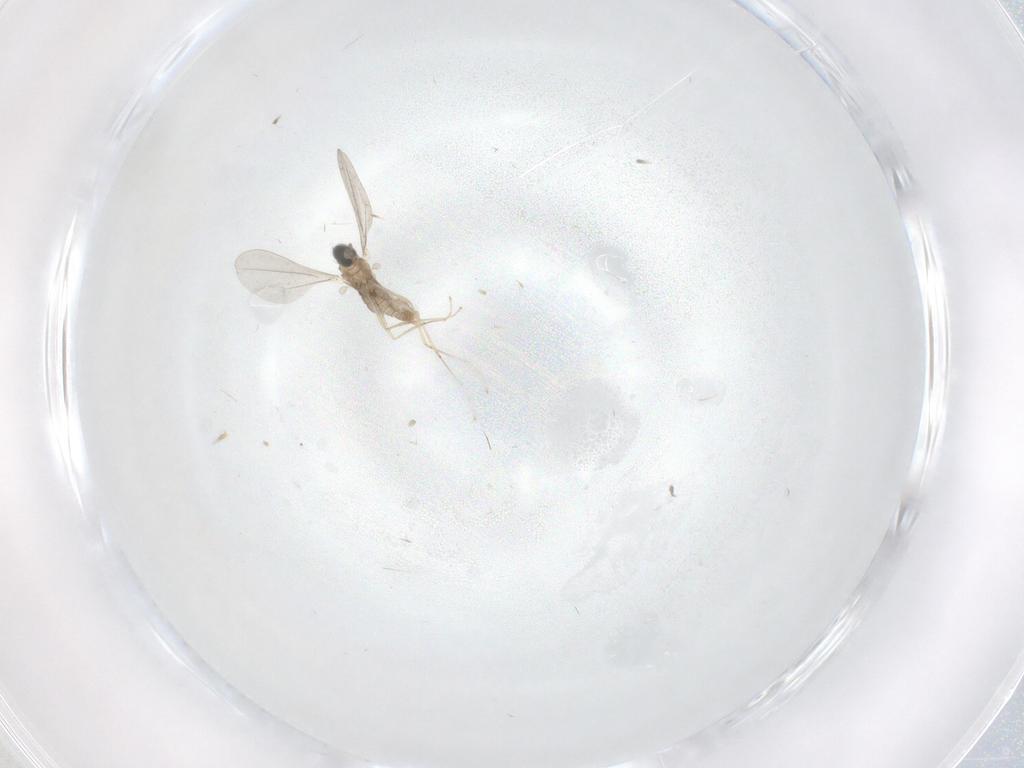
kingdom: Animalia
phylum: Arthropoda
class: Insecta
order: Diptera
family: Cecidomyiidae
